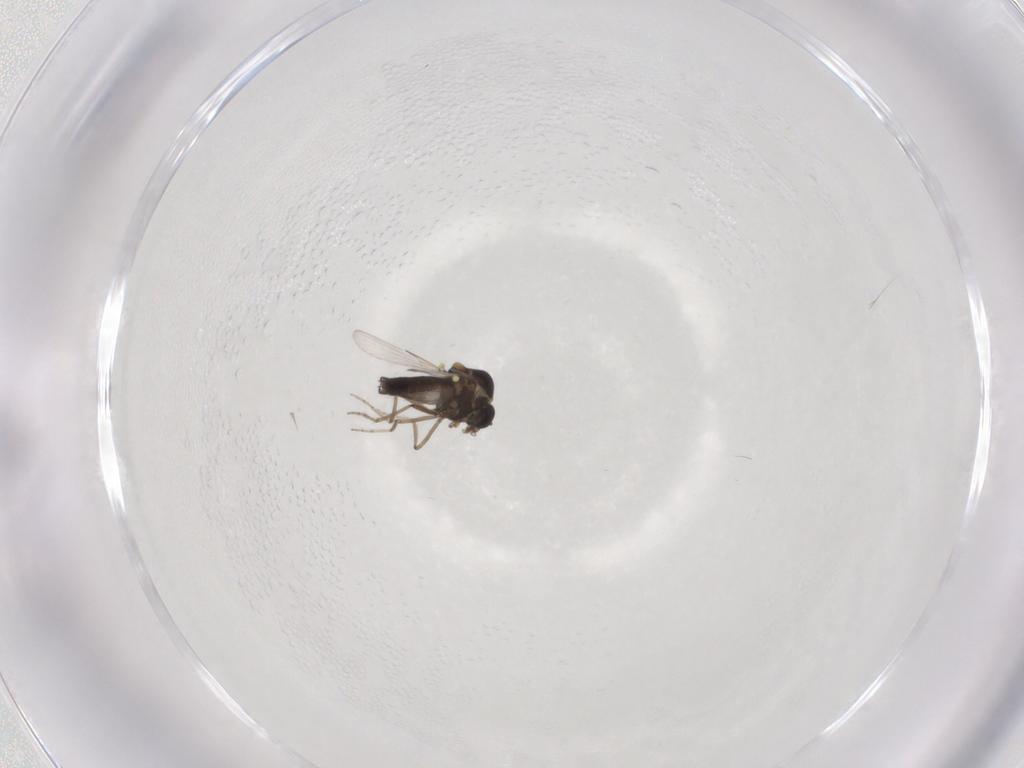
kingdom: Animalia
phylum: Arthropoda
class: Insecta
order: Diptera
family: Ceratopogonidae
